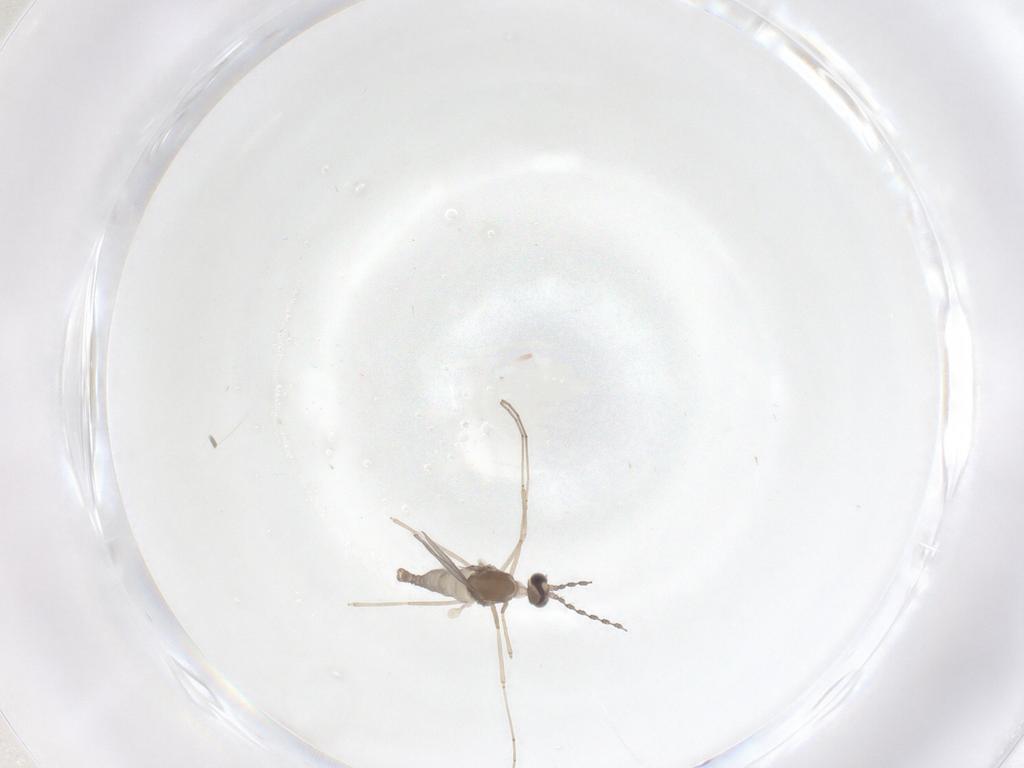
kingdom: Animalia
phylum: Arthropoda
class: Insecta
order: Diptera
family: Cecidomyiidae
